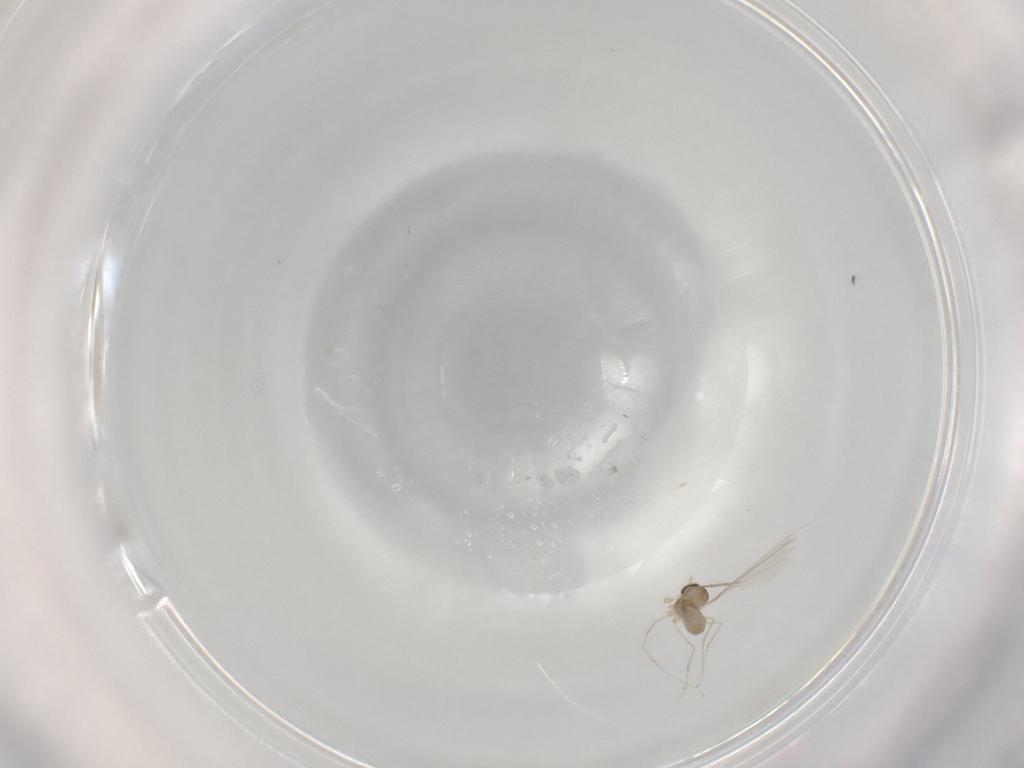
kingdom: Animalia
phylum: Arthropoda
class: Insecta
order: Diptera
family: Cecidomyiidae
